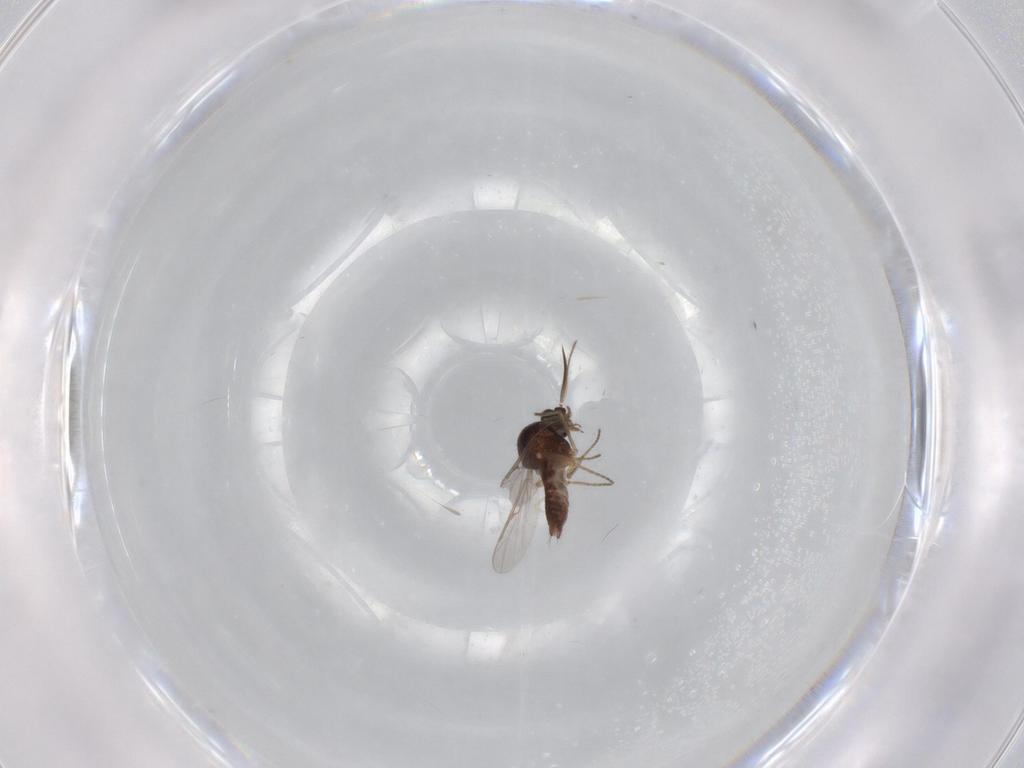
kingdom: Animalia
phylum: Arthropoda
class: Insecta
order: Diptera
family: Ceratopogonidae
